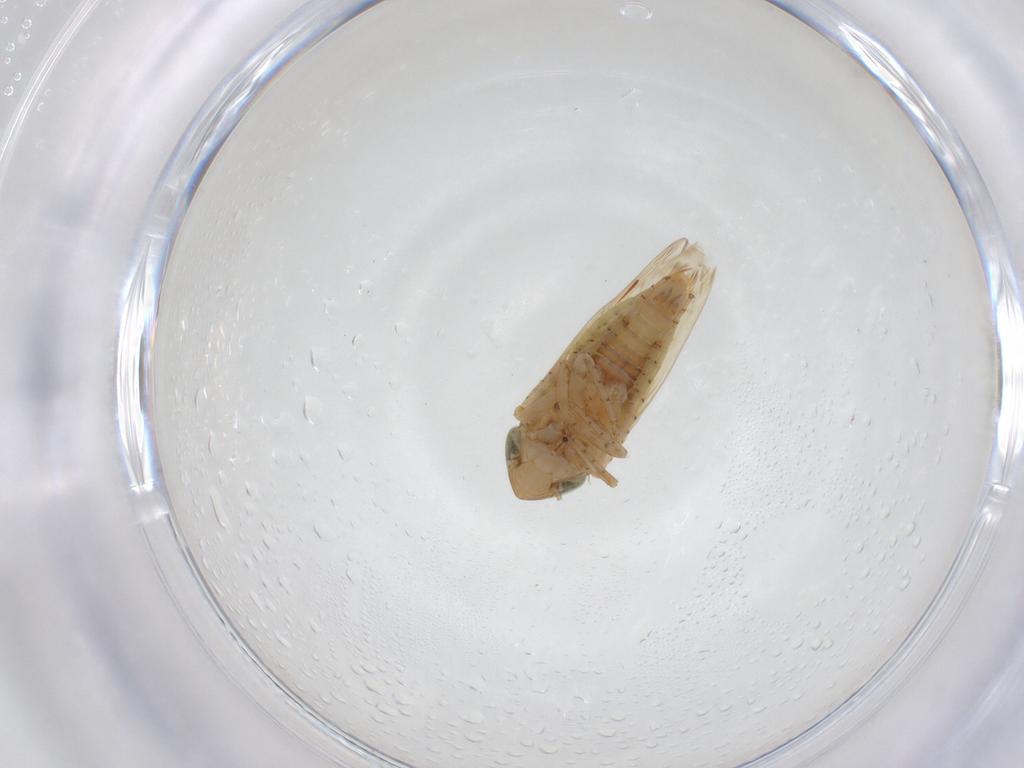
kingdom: Animalia
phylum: Arthropoda
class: Insecta
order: Hemiptera
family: Cicadellidae
